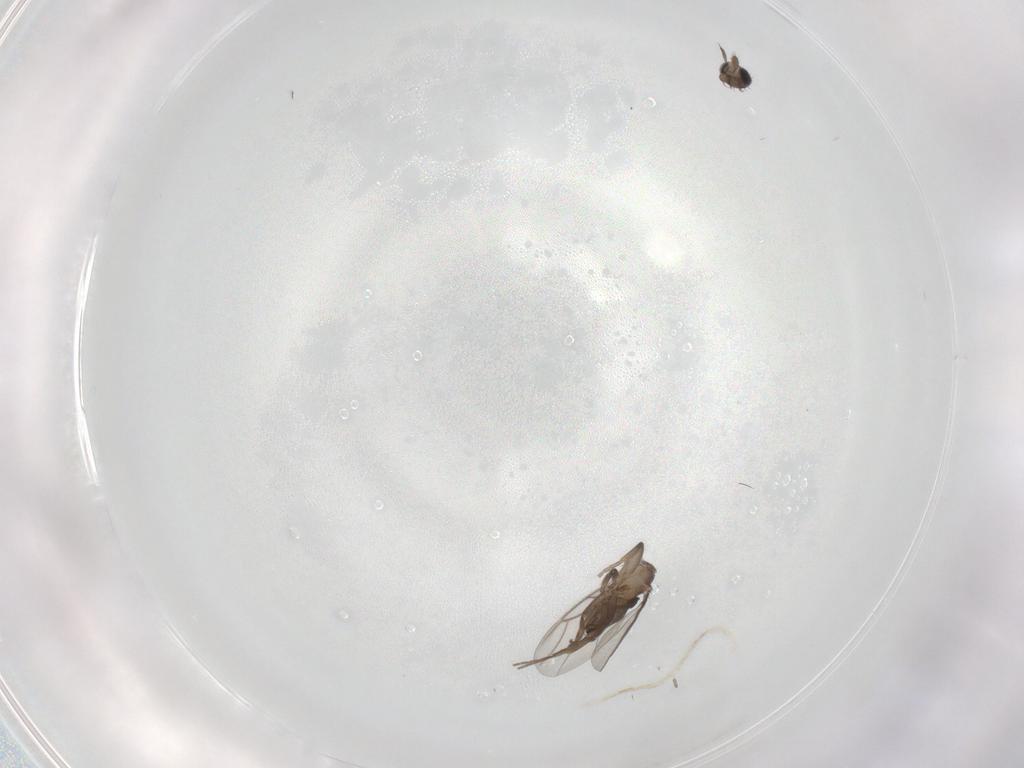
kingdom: Animalia
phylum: Arthropoda
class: Insecta
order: Diptera
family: Phoridae
